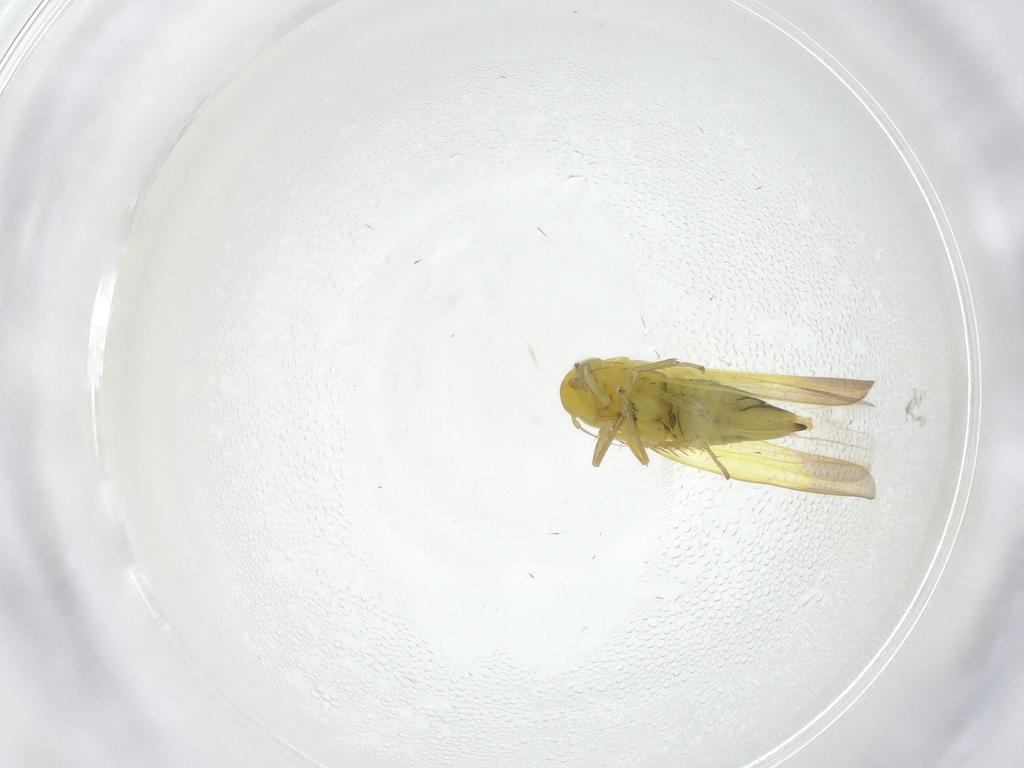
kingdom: Animalia
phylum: Arthropoda
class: Insecta
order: Hemiptera
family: Cicadellidae
